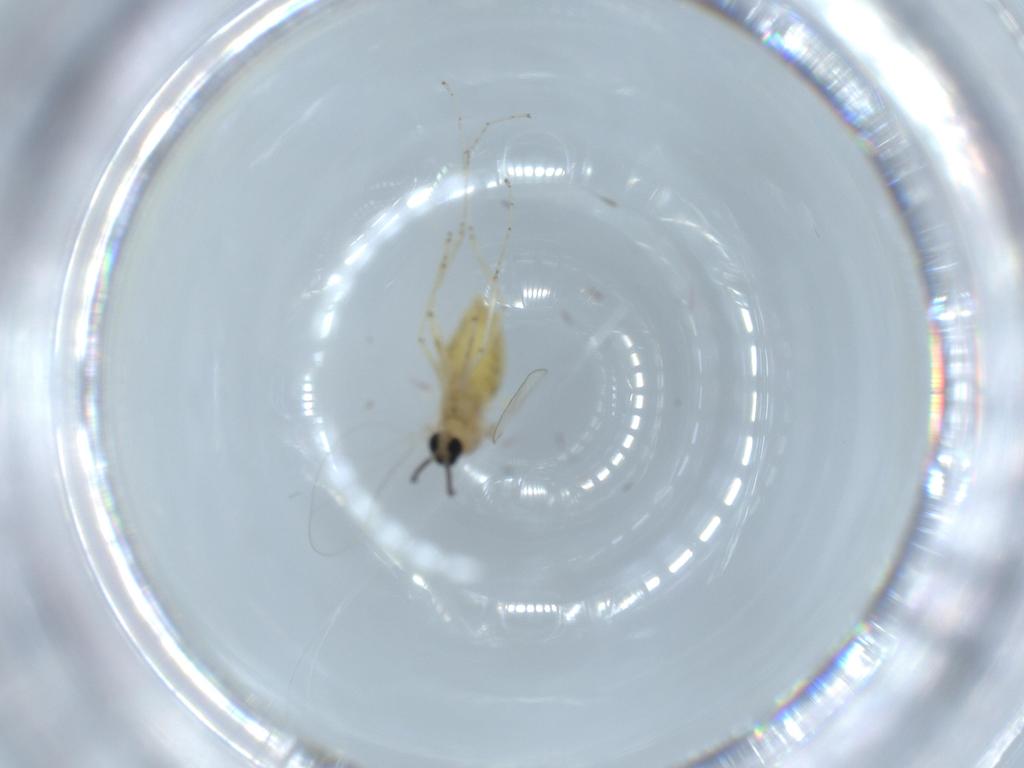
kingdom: Animalia
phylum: Arthropoda
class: Insecta
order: Diptera
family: Cecidomyiidae
